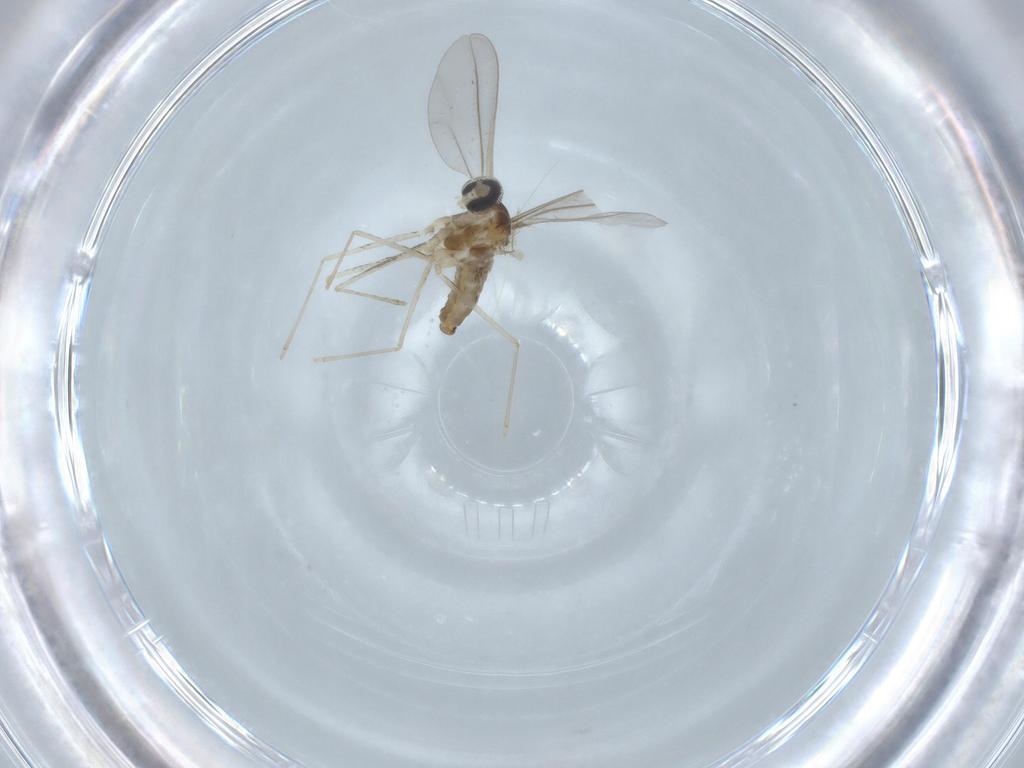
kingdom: Animalia
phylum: Arthropoda
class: Insecta
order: Diptera
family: Cecidomyiidae
